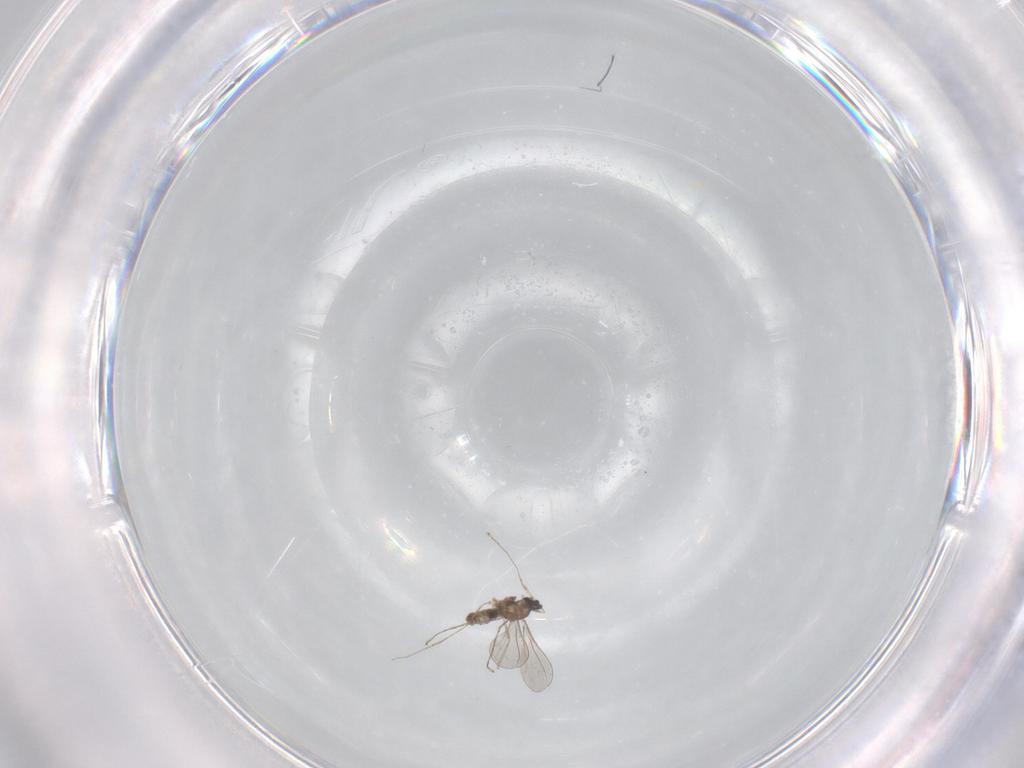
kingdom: Animalia
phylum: Arthropoda
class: Insecta
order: Diptera
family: Cecidomyiidae
